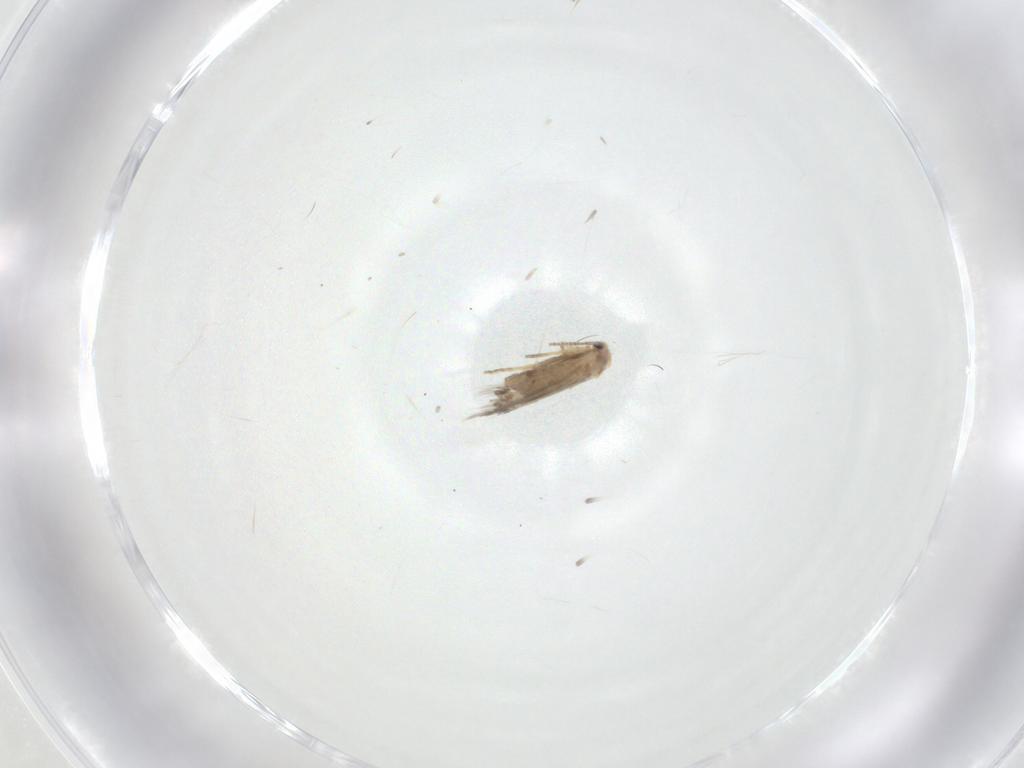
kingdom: Animalia
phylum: Arthropoda
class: Insecta
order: Lepidoptera
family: Nepticulidae
